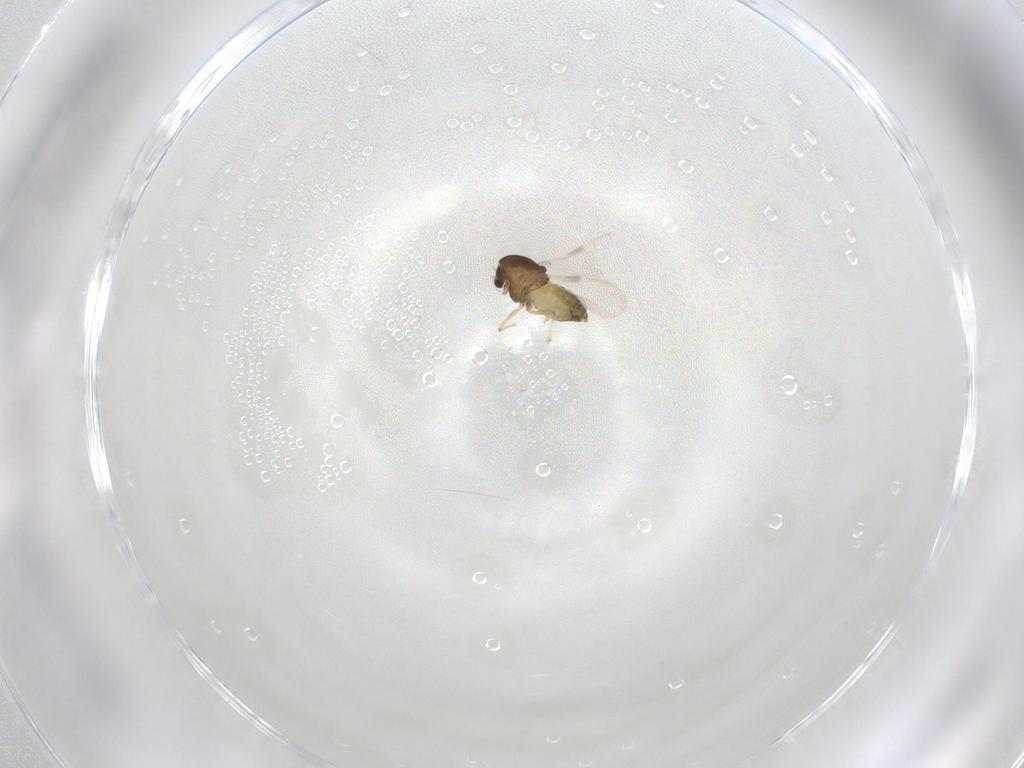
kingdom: Animalia
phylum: Arthropoda
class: Insecta
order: Diptera
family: Chironomidae
